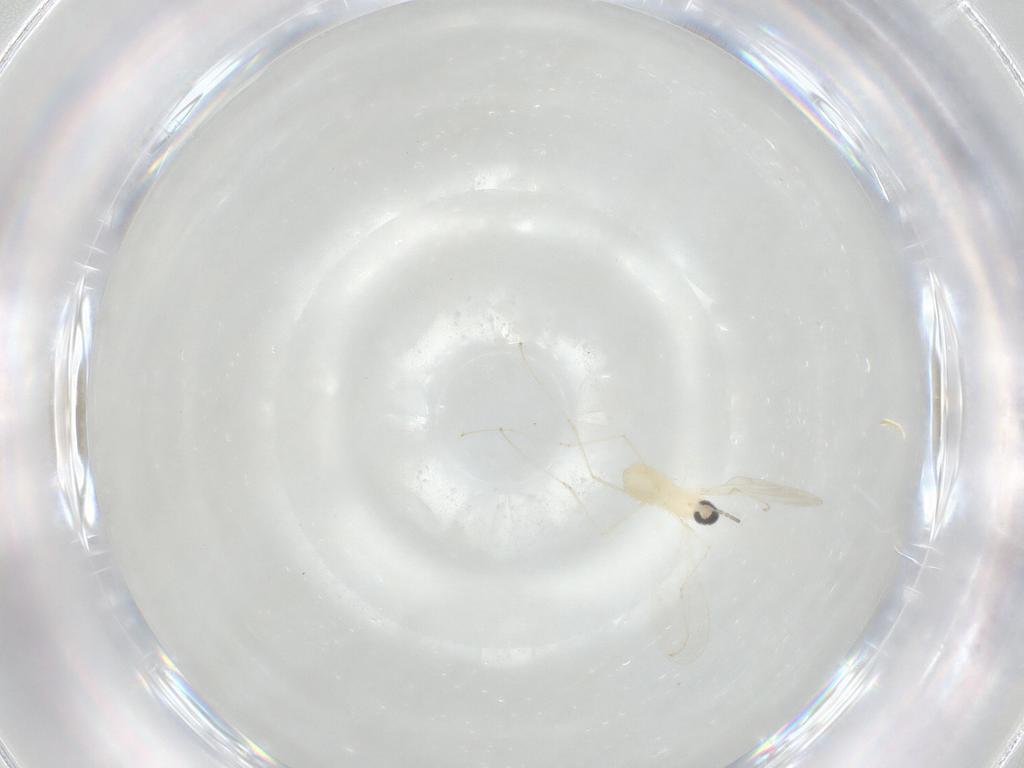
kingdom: Animalia
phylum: Arthropoda
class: Insecta
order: Diptera
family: Cecidomyiidae
